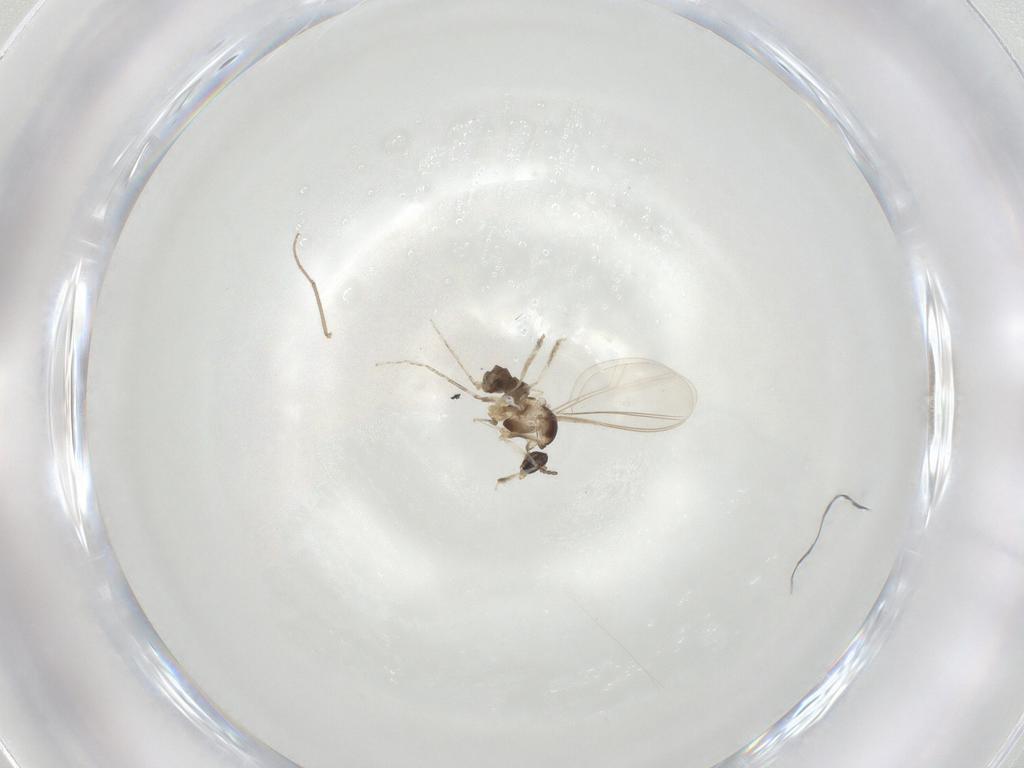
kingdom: Animalia
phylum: Arthropoda
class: Insecta
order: Diptera
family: Cecidomyiidae
